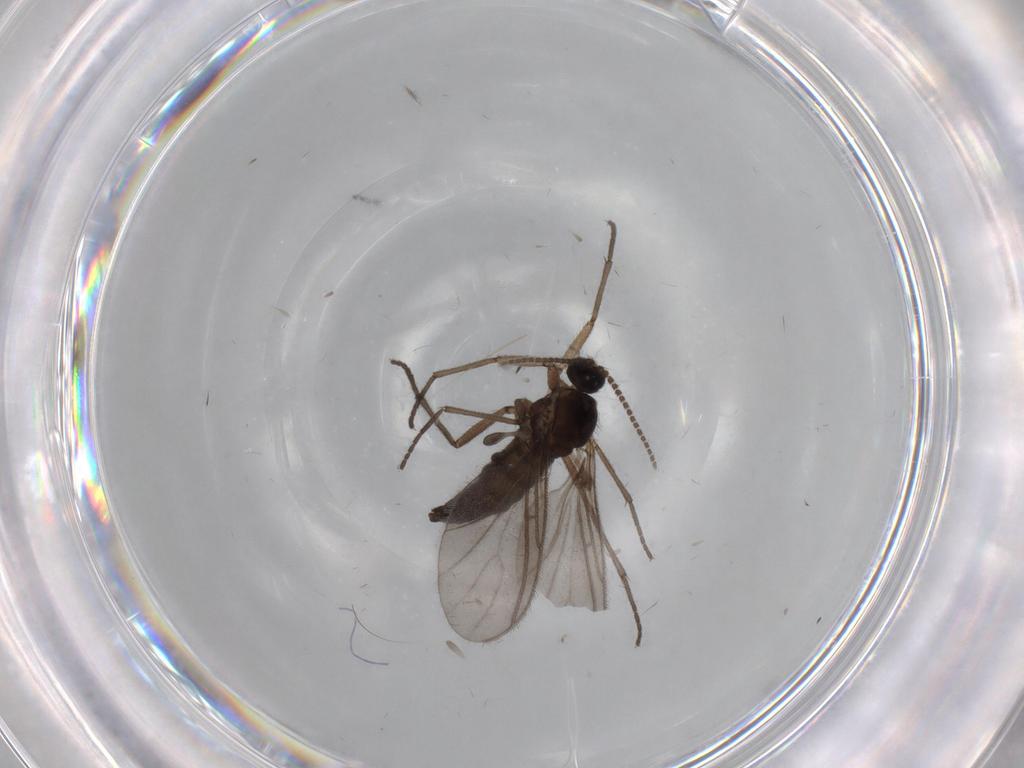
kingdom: Animalia
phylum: Arthropoda
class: Insecta
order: Diptera
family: Sciaridae
